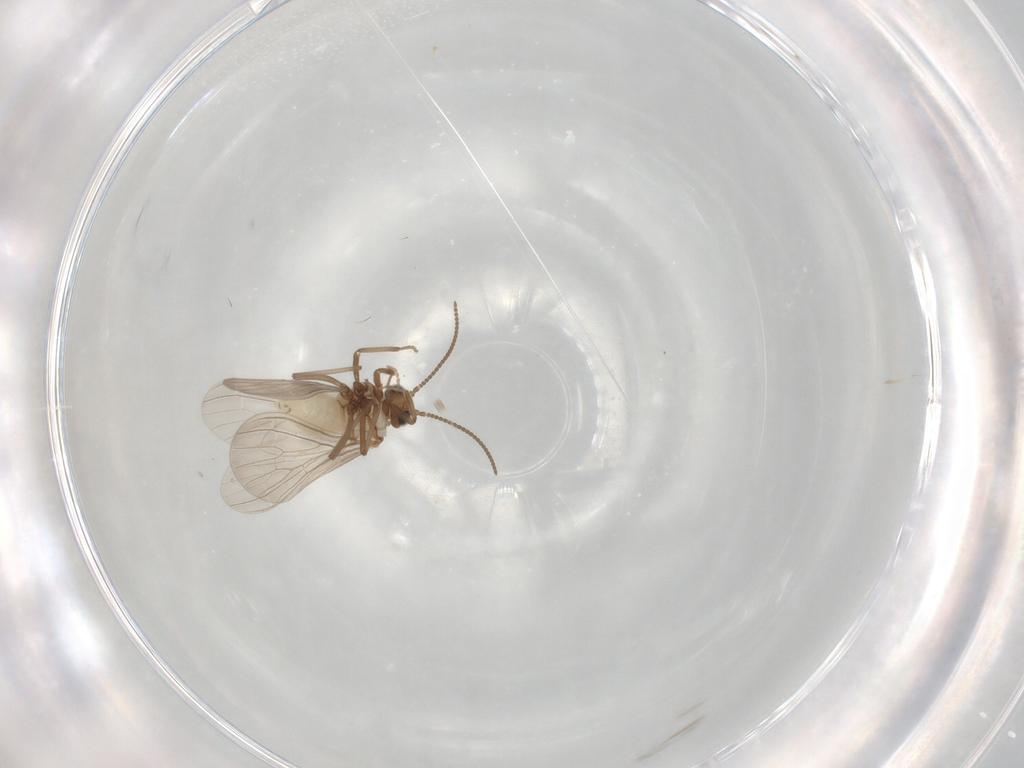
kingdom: Animalia
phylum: Arthropoda
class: Insecta
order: Neuroptera
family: Coniopterygidae
